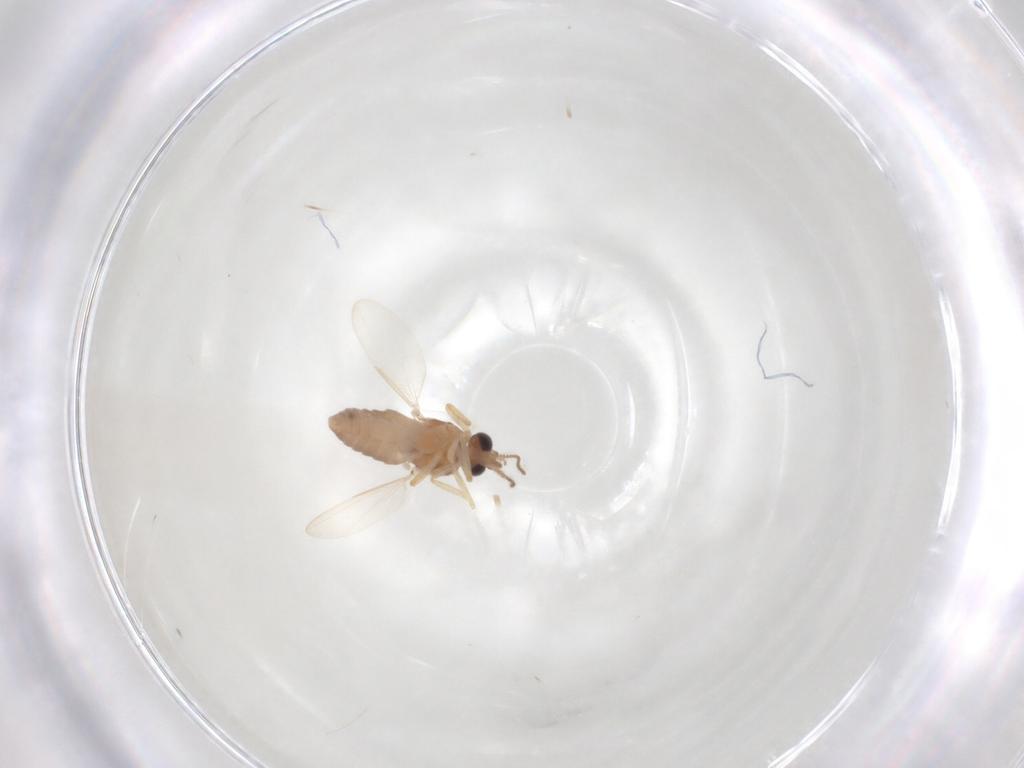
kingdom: Animalia
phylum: Arthropoda
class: Insecta
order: Diptera
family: Ceratopogonidae
